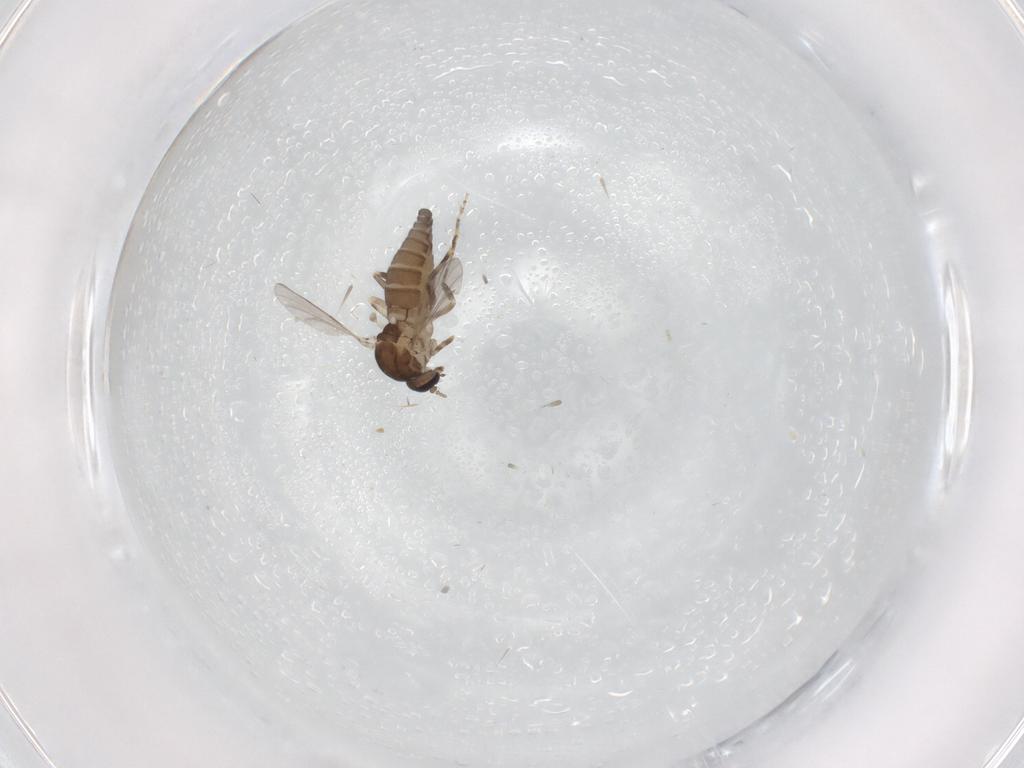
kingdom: Animalia
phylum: Arthropoda
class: Insecta
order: Diptera
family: Ceratopogonidae
